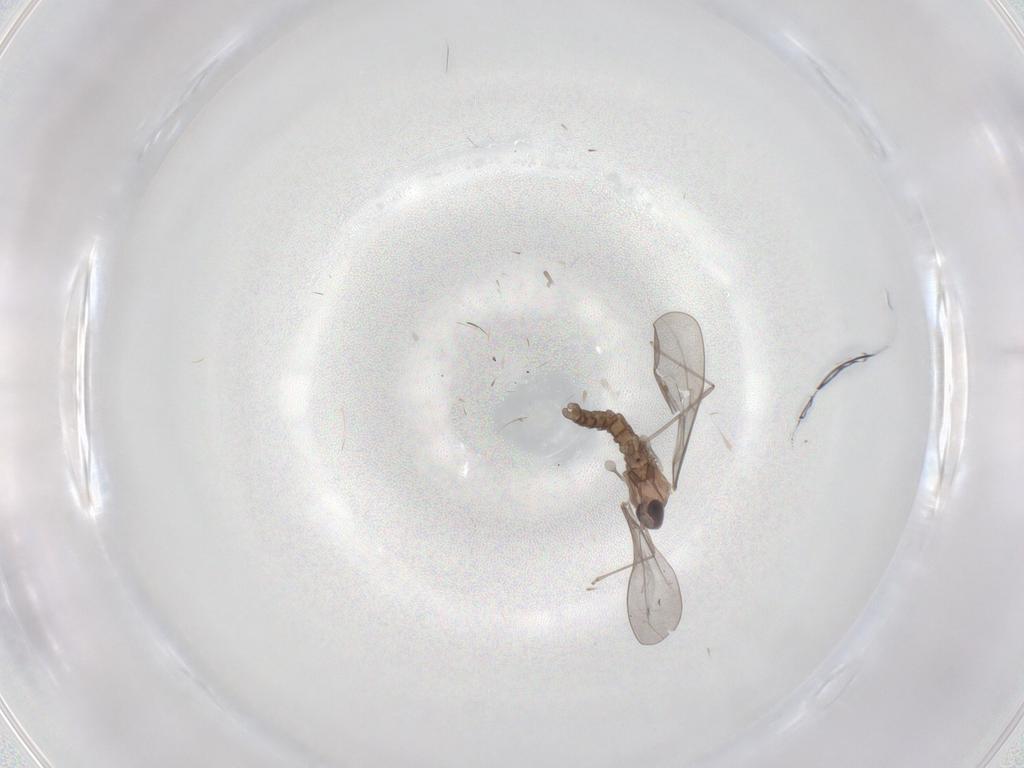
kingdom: Animalia
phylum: Arthropoda
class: Insecta
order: Diptera
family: Cecidomyiidae
